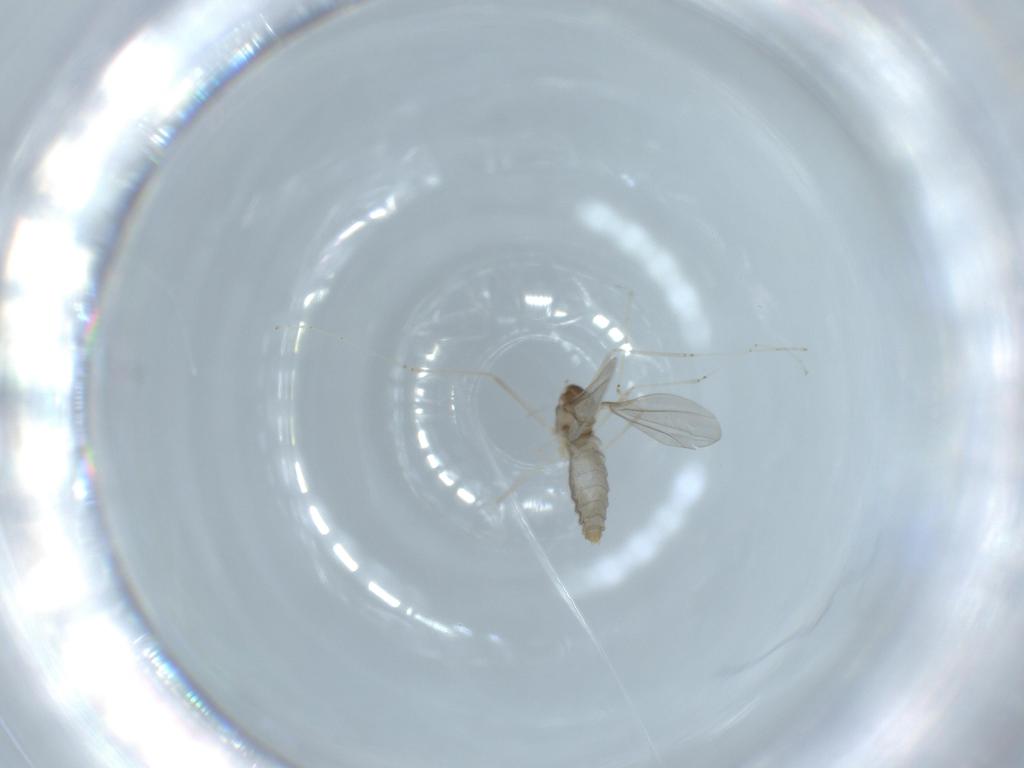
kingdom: Animalia
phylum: Arthropoda
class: Insecta
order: Diptera
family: Cecidomyiidae
